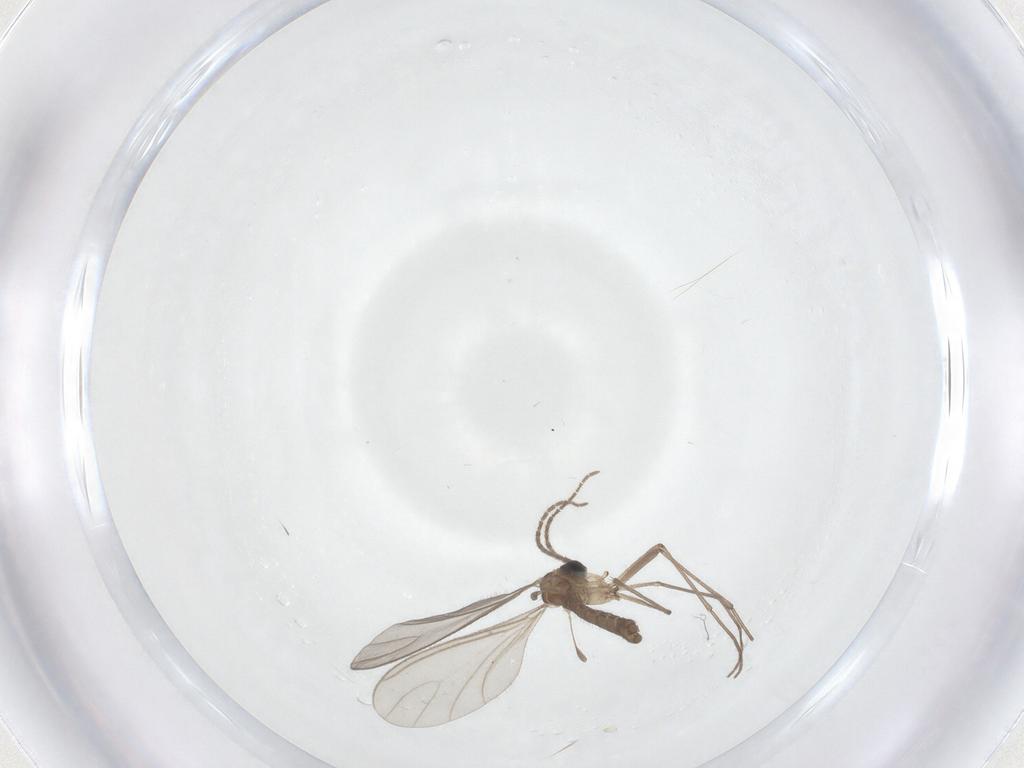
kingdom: Animalia
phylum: Arthropoda
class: Insecta
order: Diptera
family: Sciaridae
